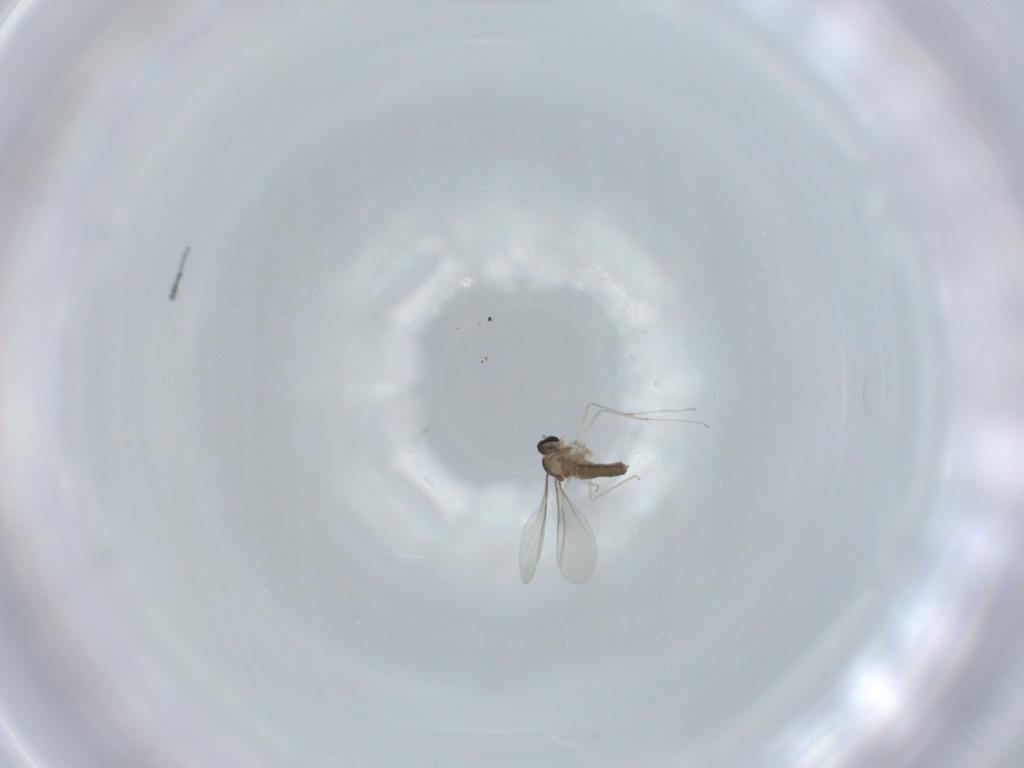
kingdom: Animalia
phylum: Arthropoda
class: Insecta
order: Diptera
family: Cecidomyiidae
